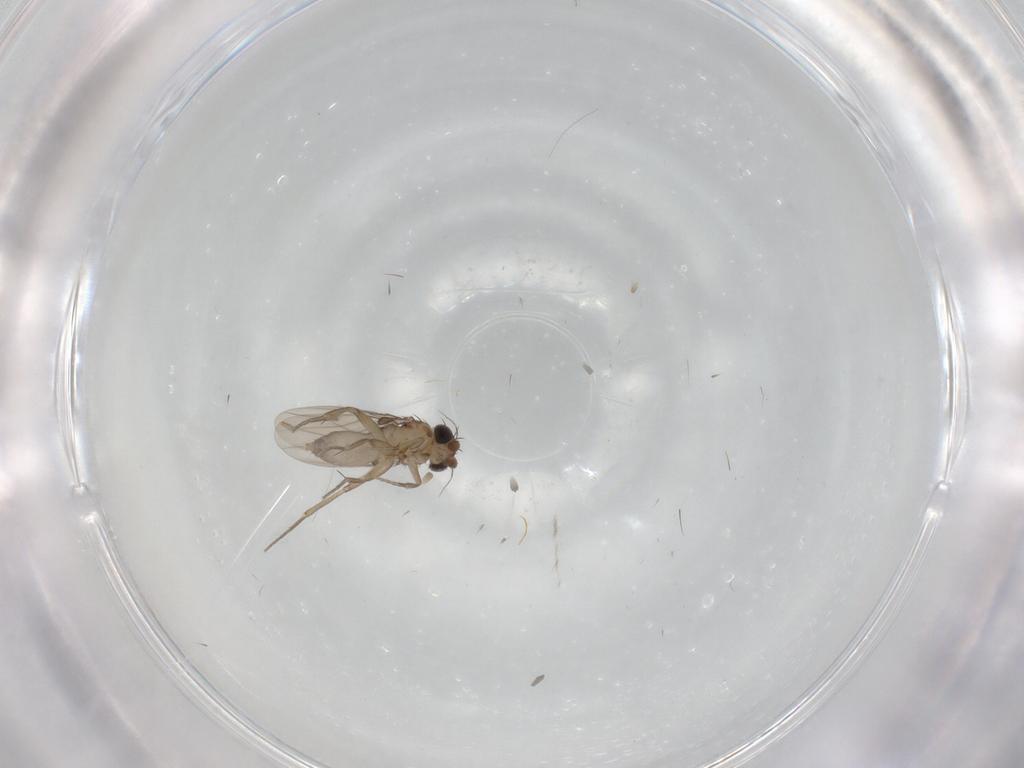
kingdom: Animalia
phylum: Arthropoda
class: Insecta
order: Diptera
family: Phoridae
